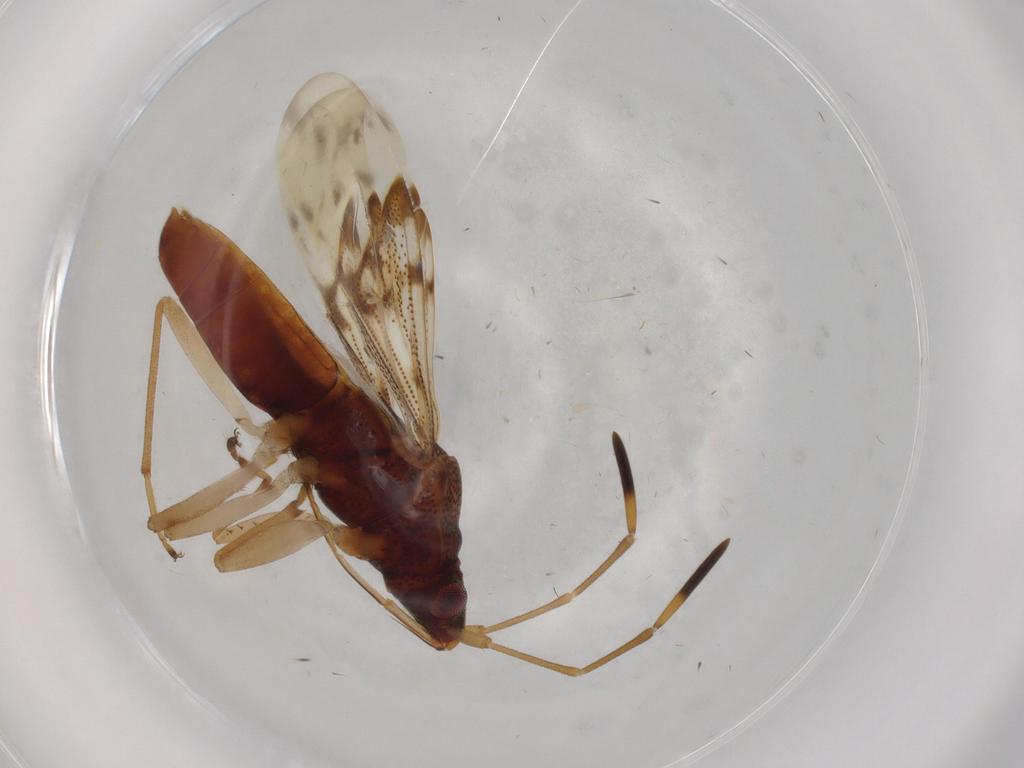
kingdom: Animalia
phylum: Arthropoda
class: Insecta
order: Hemiptera
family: Rhyparochromidae
